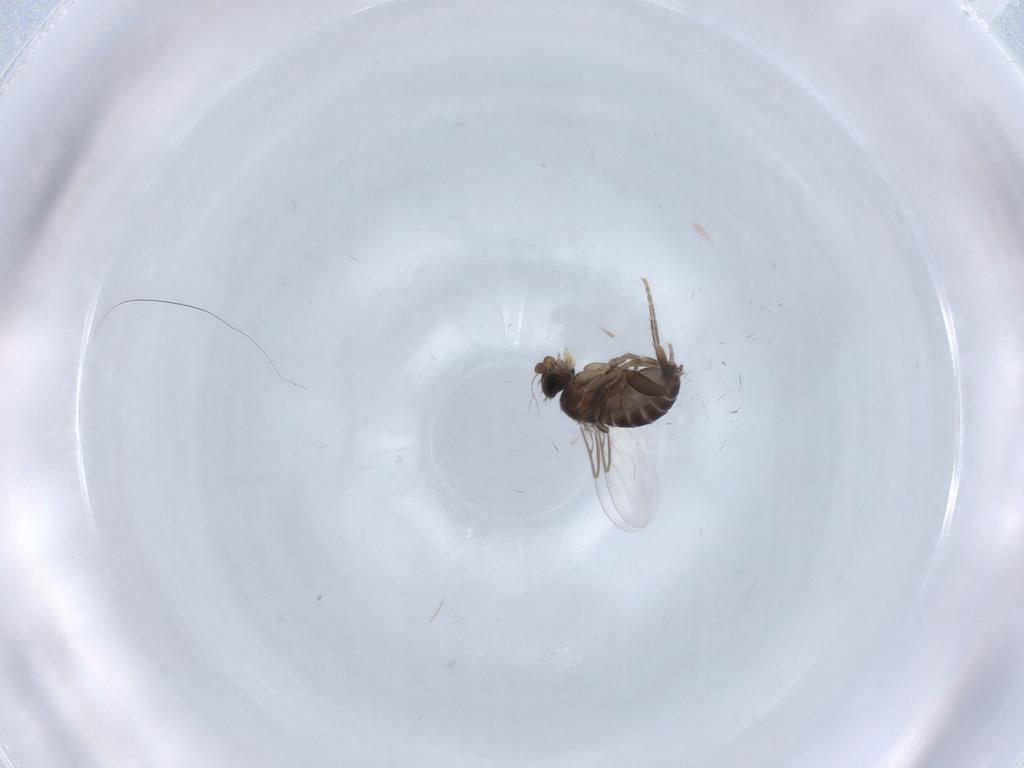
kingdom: Animalia
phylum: Arthropoda
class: Insecta
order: Diptera
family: Phoridae
